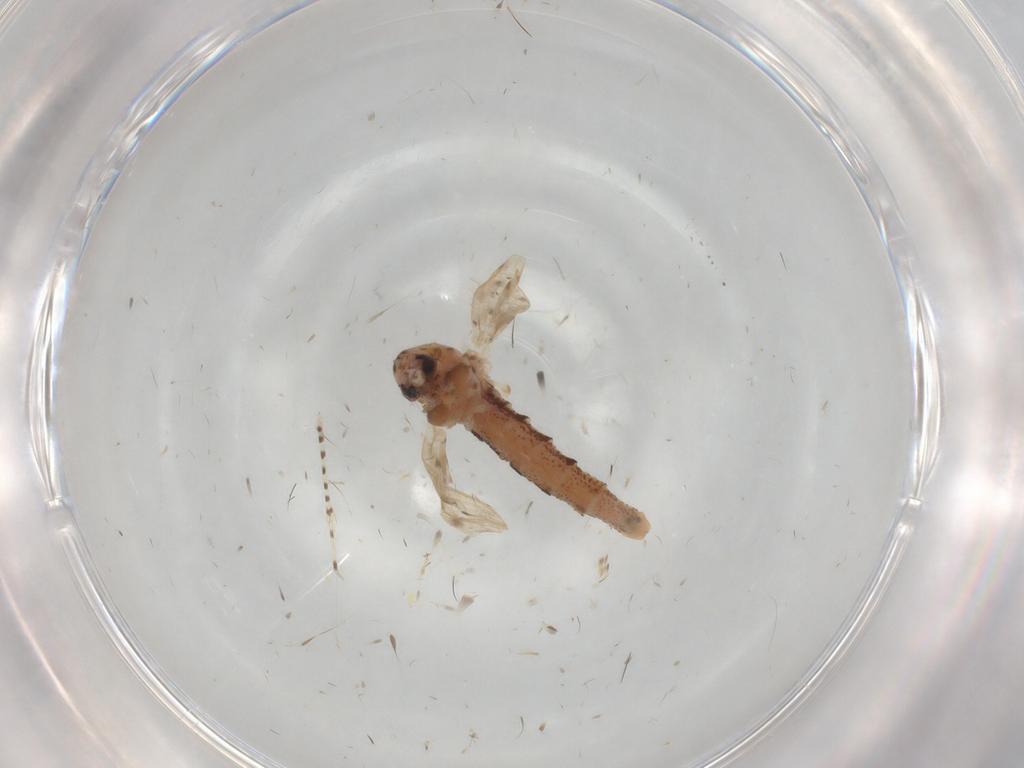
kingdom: Animalia
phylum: Arthropoda
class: Insecta
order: Diptera
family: Chaoboridae
